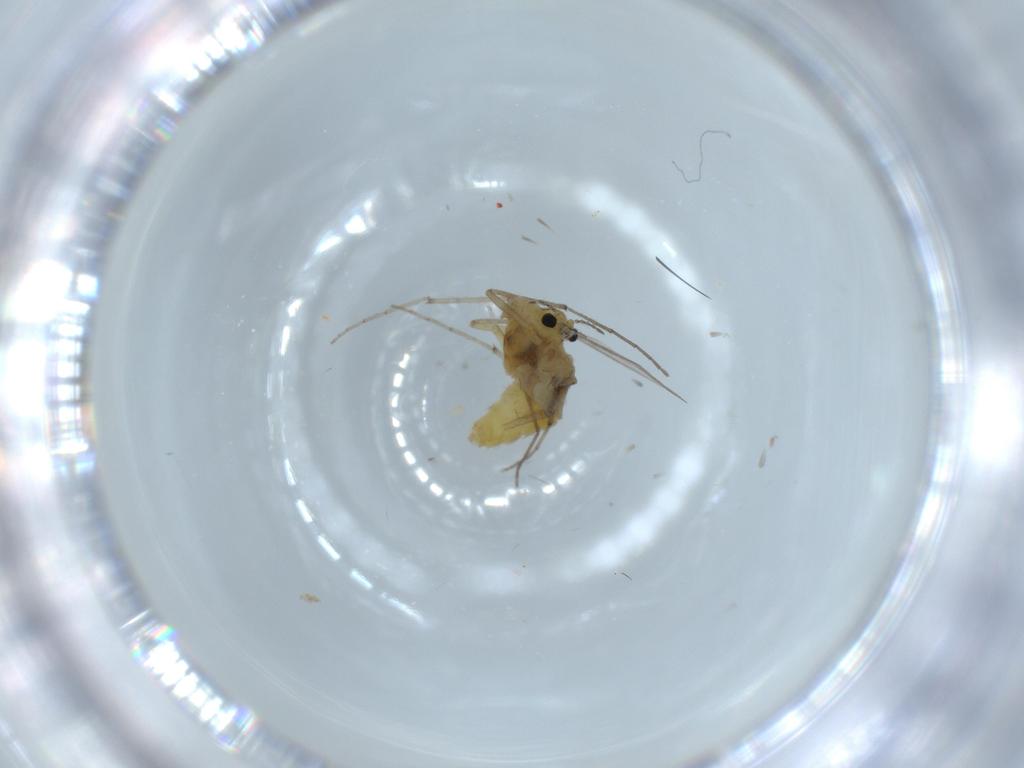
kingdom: Animalia
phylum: Arthropoda
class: Insecta
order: Diptera
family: Chironomidae
